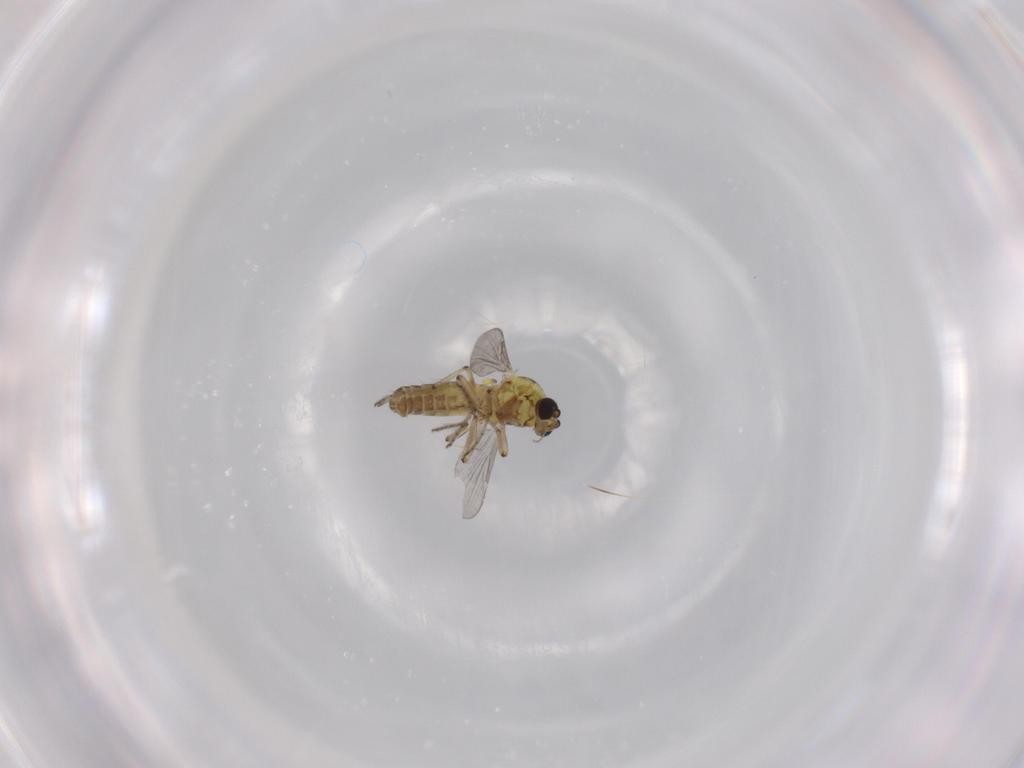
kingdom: Animalia
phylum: Arthropoda
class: Insecta
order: Diptera
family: Ceratopogonidae
